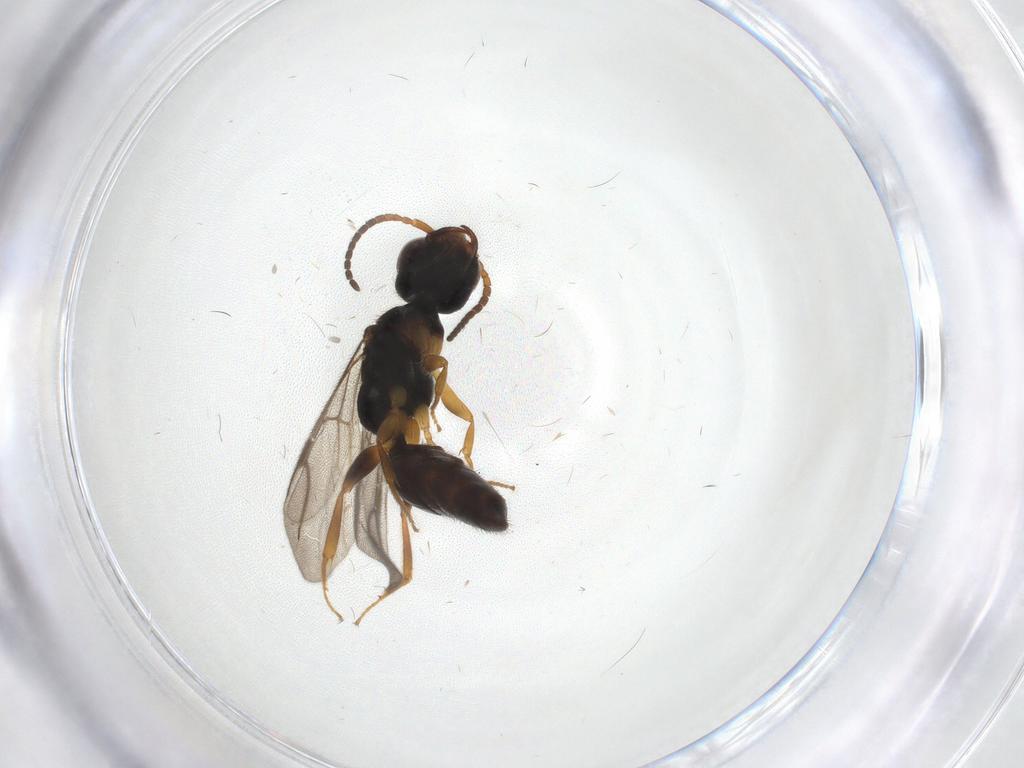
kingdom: Animalia
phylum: Arthropoda
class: Insecta
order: Hymenoptera
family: Bethylidae
